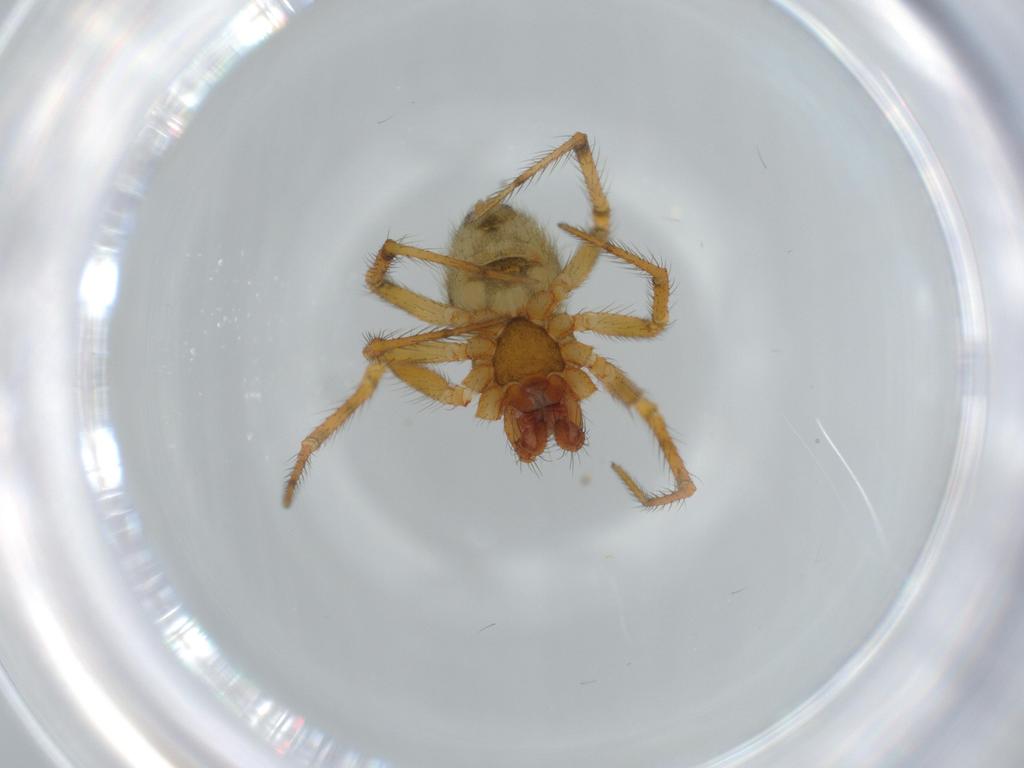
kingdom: Animalia
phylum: Arthropoda
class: Arachnida
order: Araneae
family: Theridiidae
